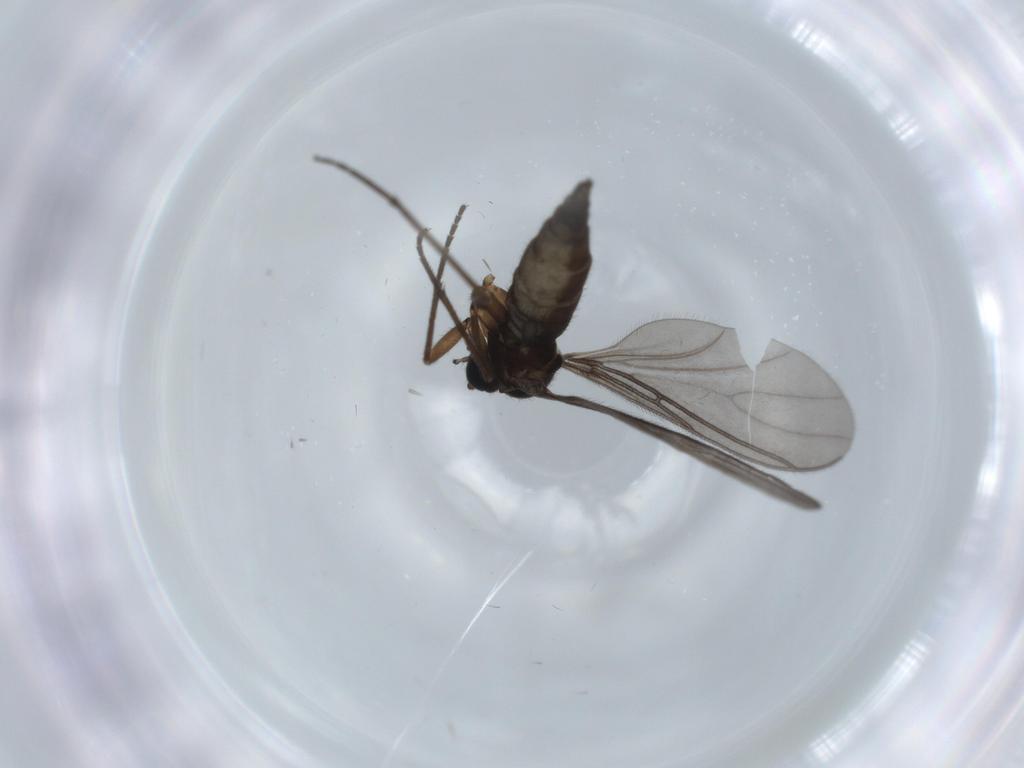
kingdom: Animalia
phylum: Arthropoda
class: Insecta
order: Diptera
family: Sciaridae
